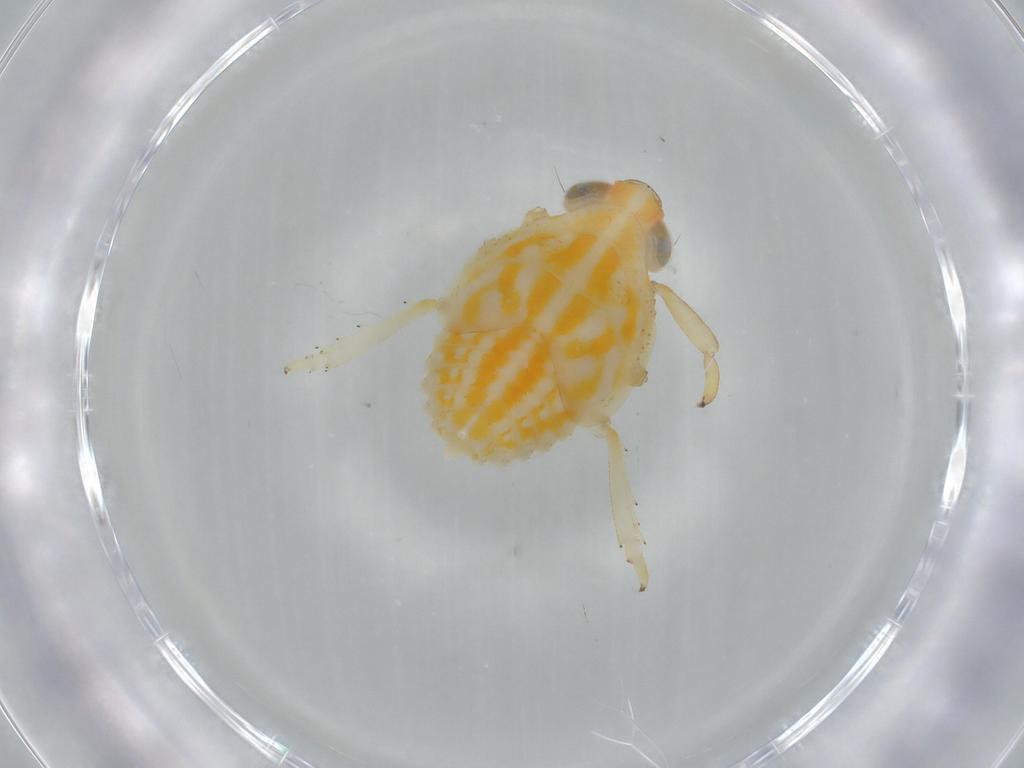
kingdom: Animalia
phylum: Arthropoda
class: Insecta
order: Hemiptera
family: Issidae
